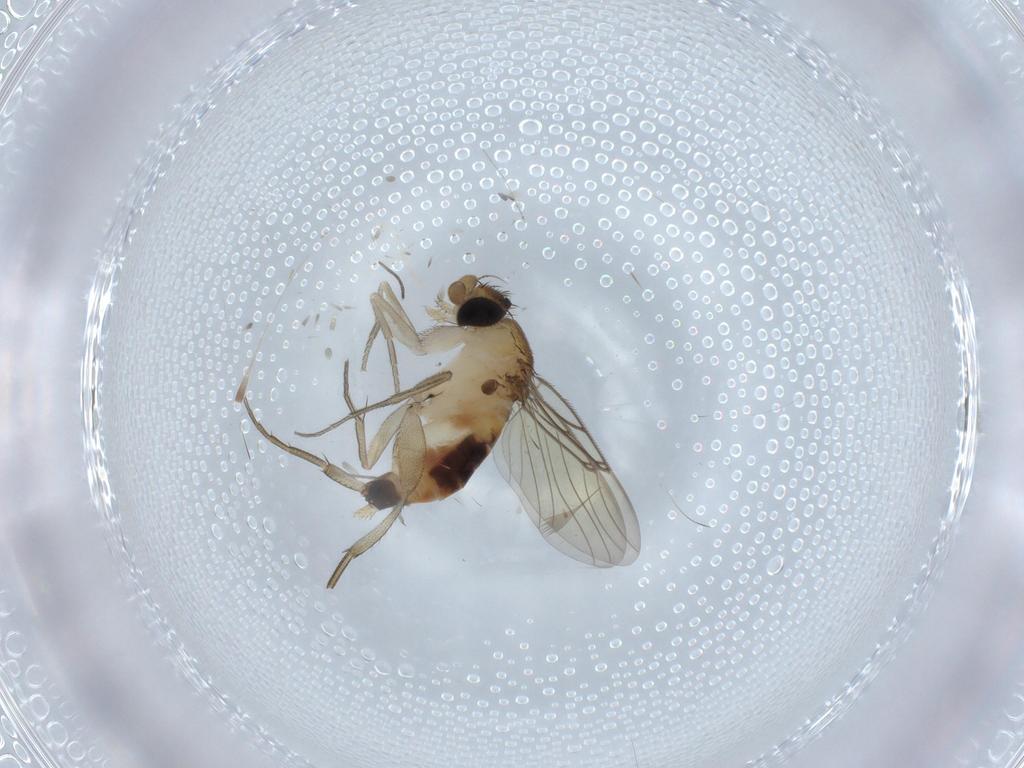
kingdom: Animalia
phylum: Arthropoda
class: Insecta
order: Diptera
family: Phoridae
